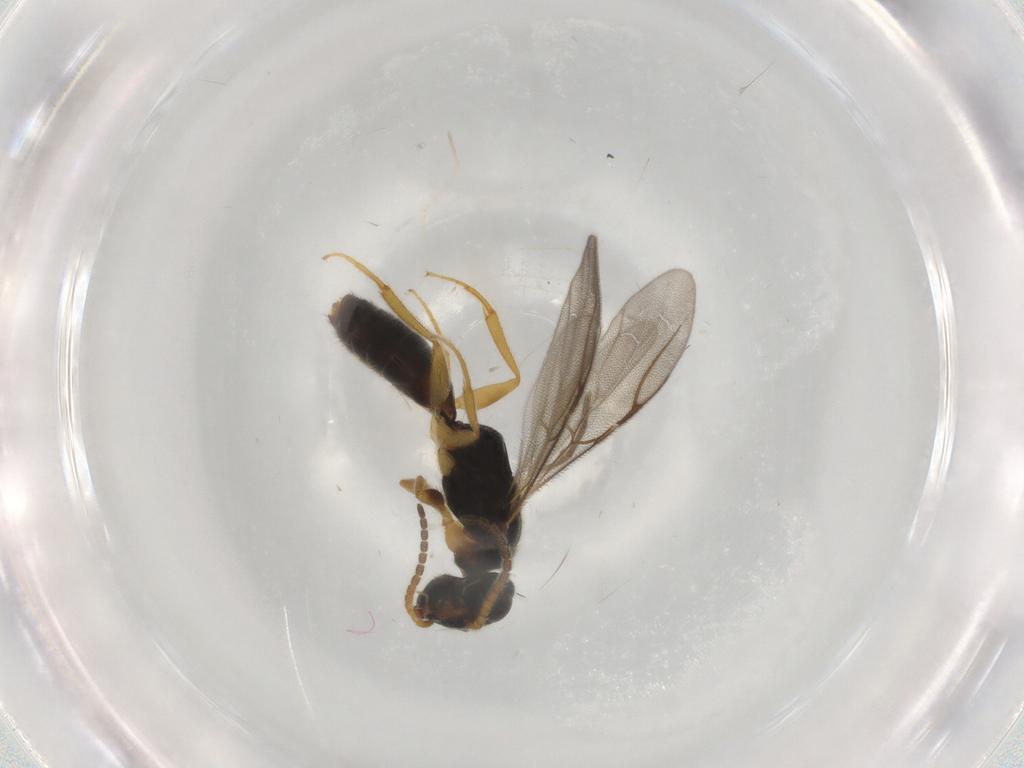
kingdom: Animalia
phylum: Arthropoda
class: Insecta
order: Hymenoptera
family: Bethylidae
